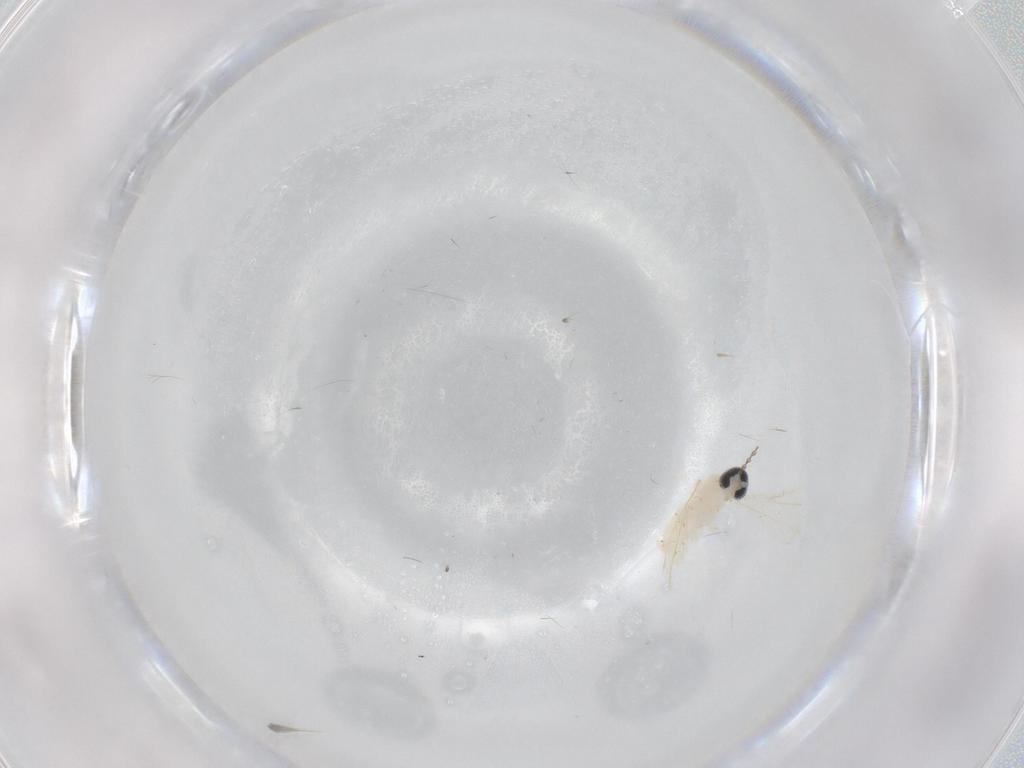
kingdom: Animalia
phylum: Arthropoda
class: Insecta
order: Diptera
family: Cecidomyiidae
